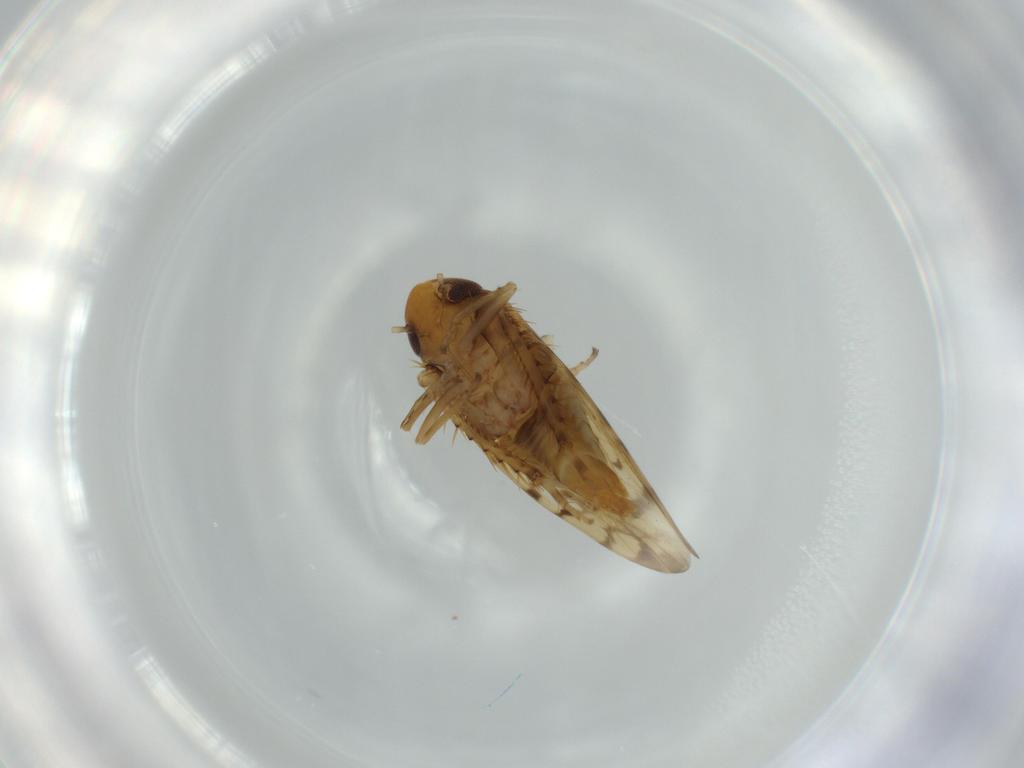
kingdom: Animalia
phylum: Arthropoda
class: Insecta
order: Hemiptera
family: Cicadellidae
